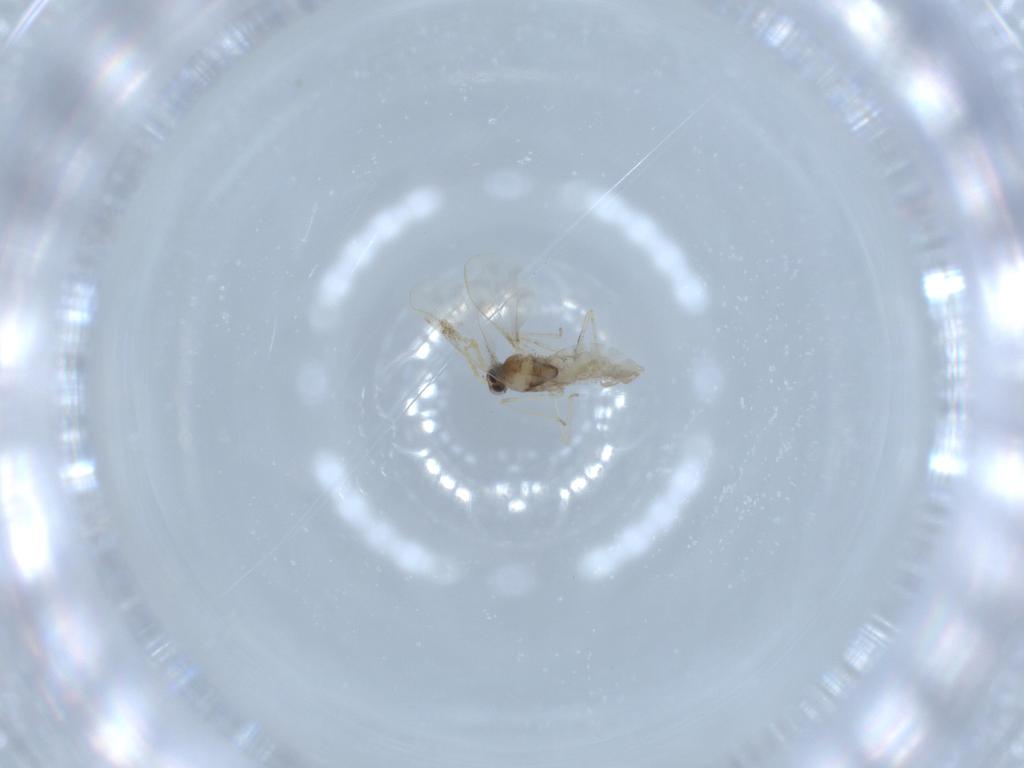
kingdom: Animalia
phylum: Arthropoda
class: Insecta
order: Diptera
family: Cecidomyiidae
